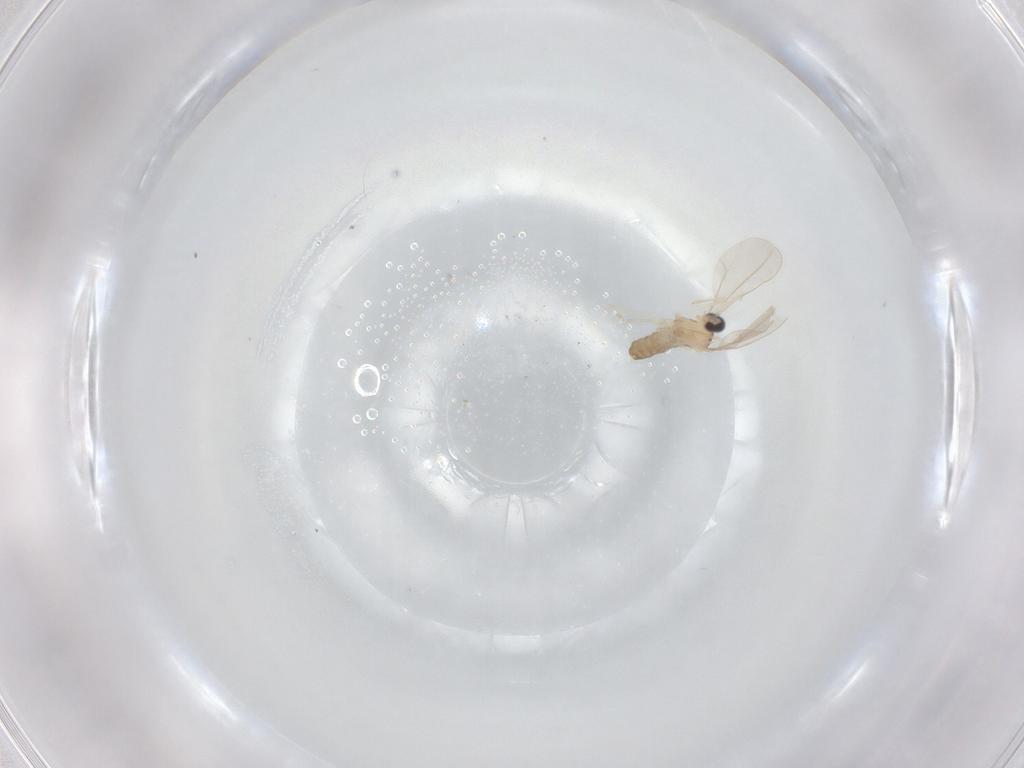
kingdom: Animalia
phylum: Arthropoda
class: Insecta
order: Diptera
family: Cecidomyiidae
